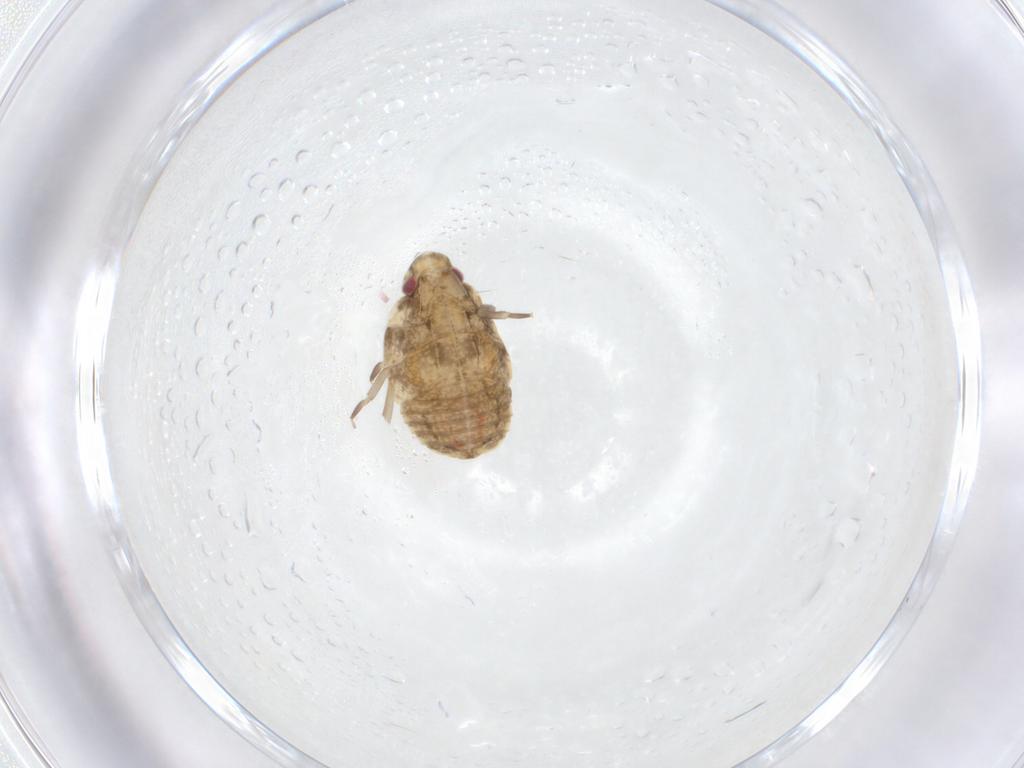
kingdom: Animalia
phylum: Arthropoda
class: Insecta
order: Hemiptera
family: Flatidae
